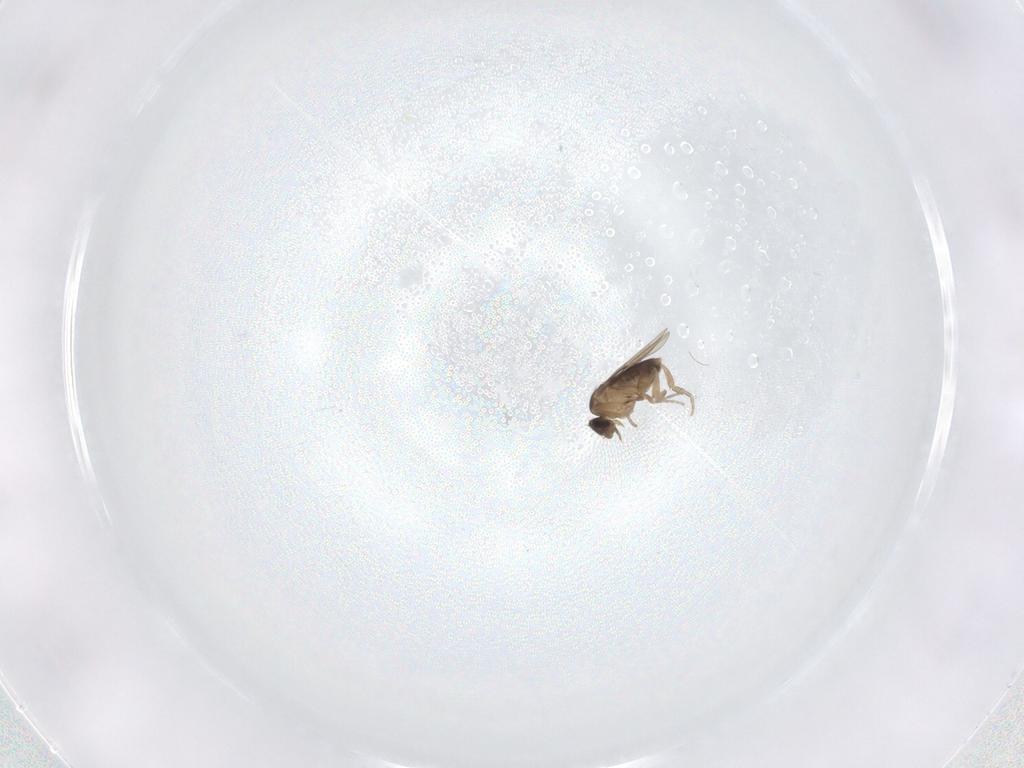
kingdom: Animalia
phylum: Arthropoda
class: Insecta
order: Diptera
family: Phoridae
